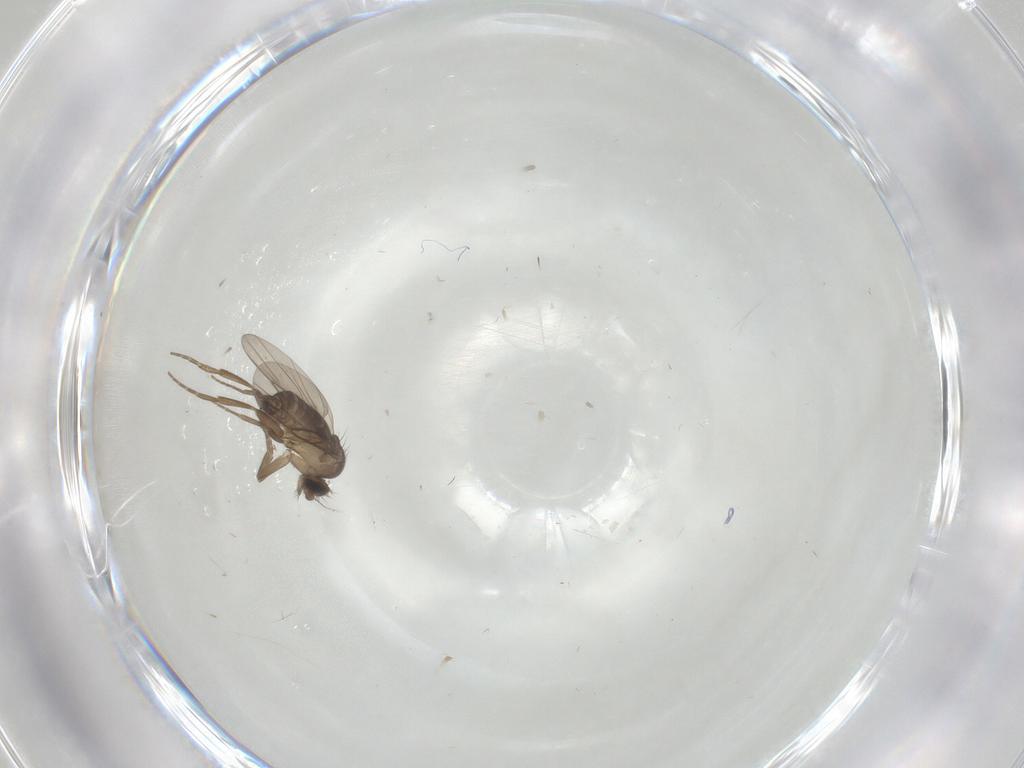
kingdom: Animalia
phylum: Arthropoda
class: Insecta
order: Diptera
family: Phoridae
